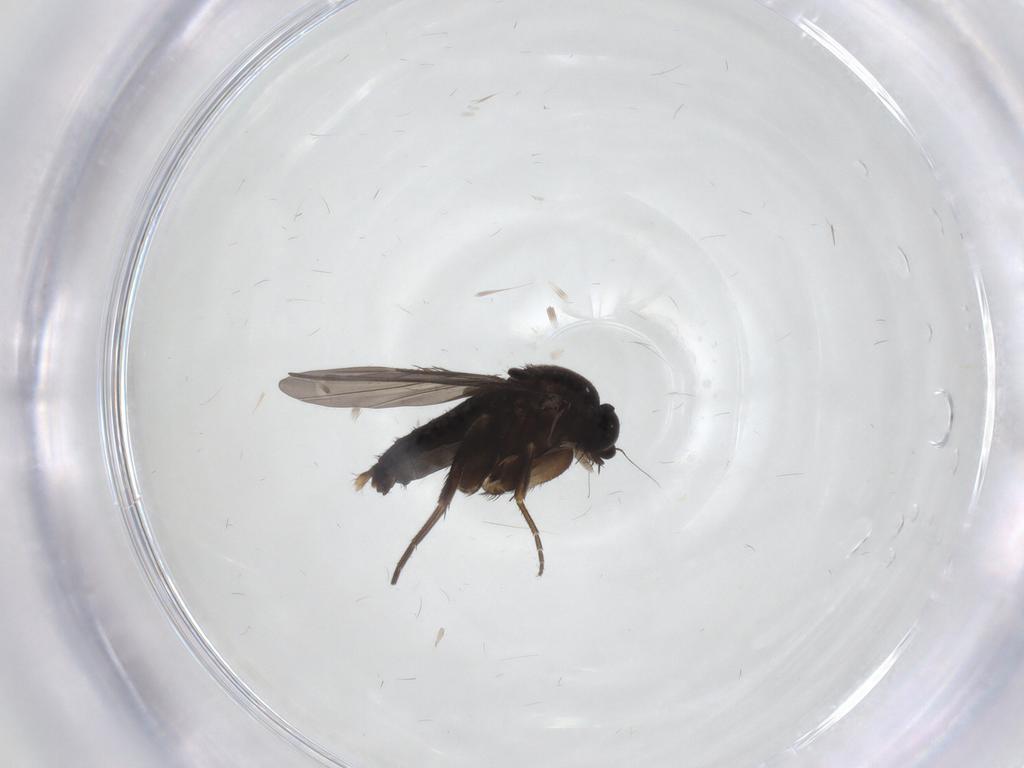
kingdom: Animalia
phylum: Arthropoda
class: Insecta
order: Diptera
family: Phoridae
